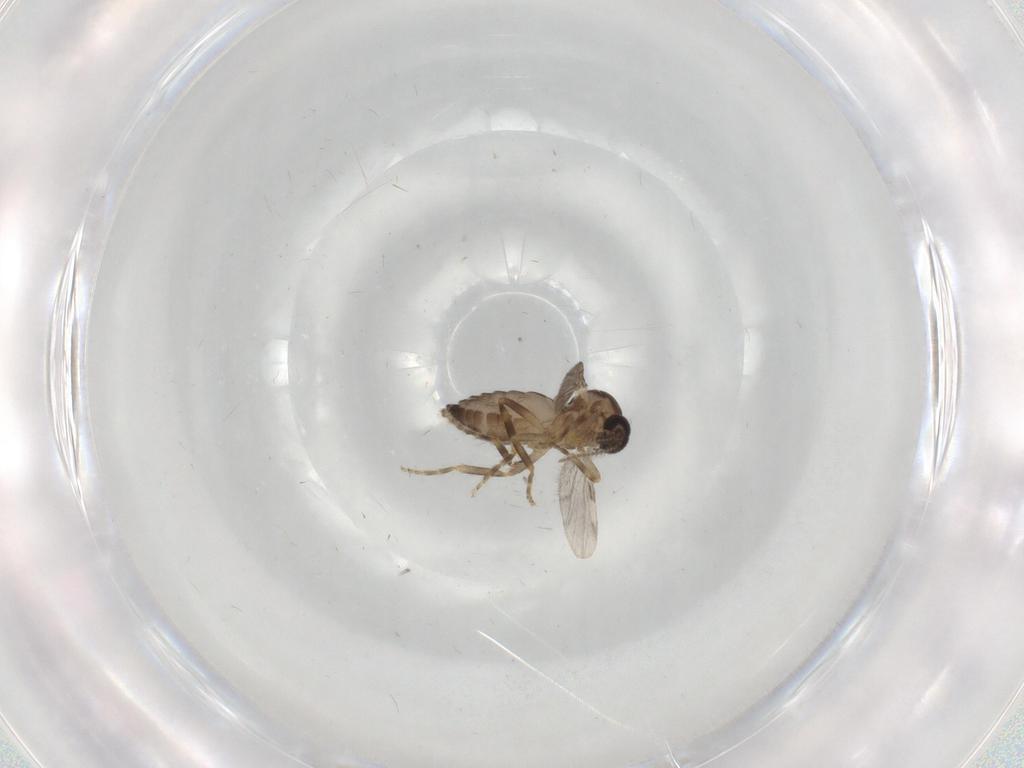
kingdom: Animalia
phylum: Arthropoda
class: Insecta
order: Diptera
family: Ceratopogonidae
